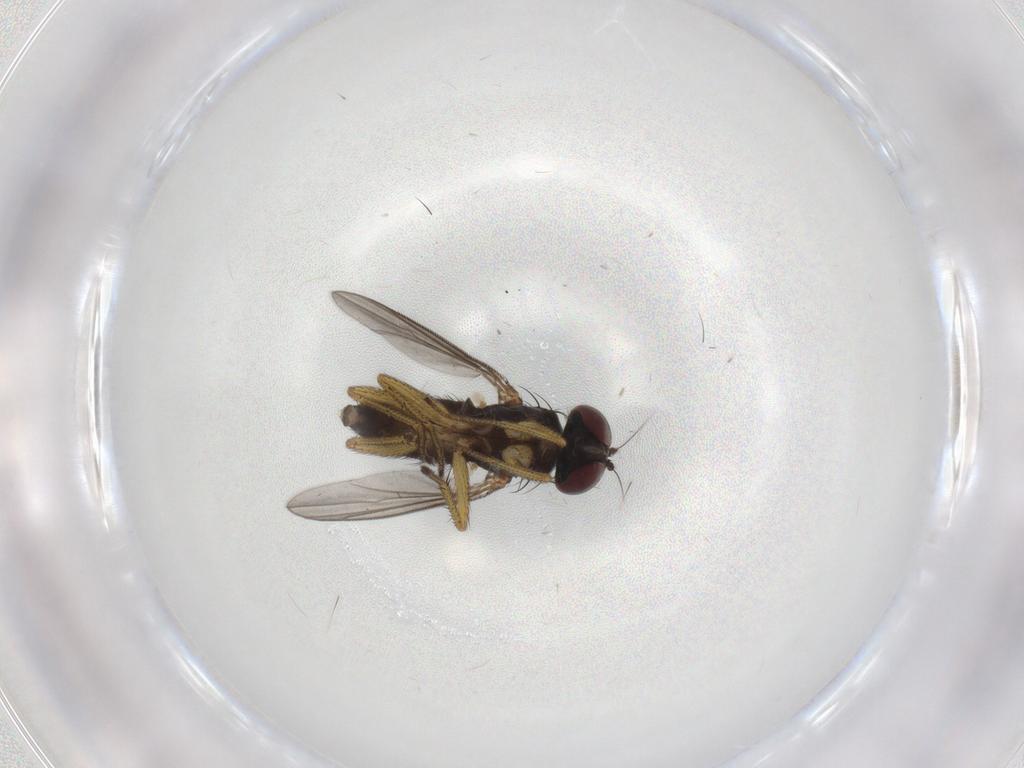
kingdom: Animalia
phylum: Arthropoda
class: Insecta
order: Diptera
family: Dolichopodidae
